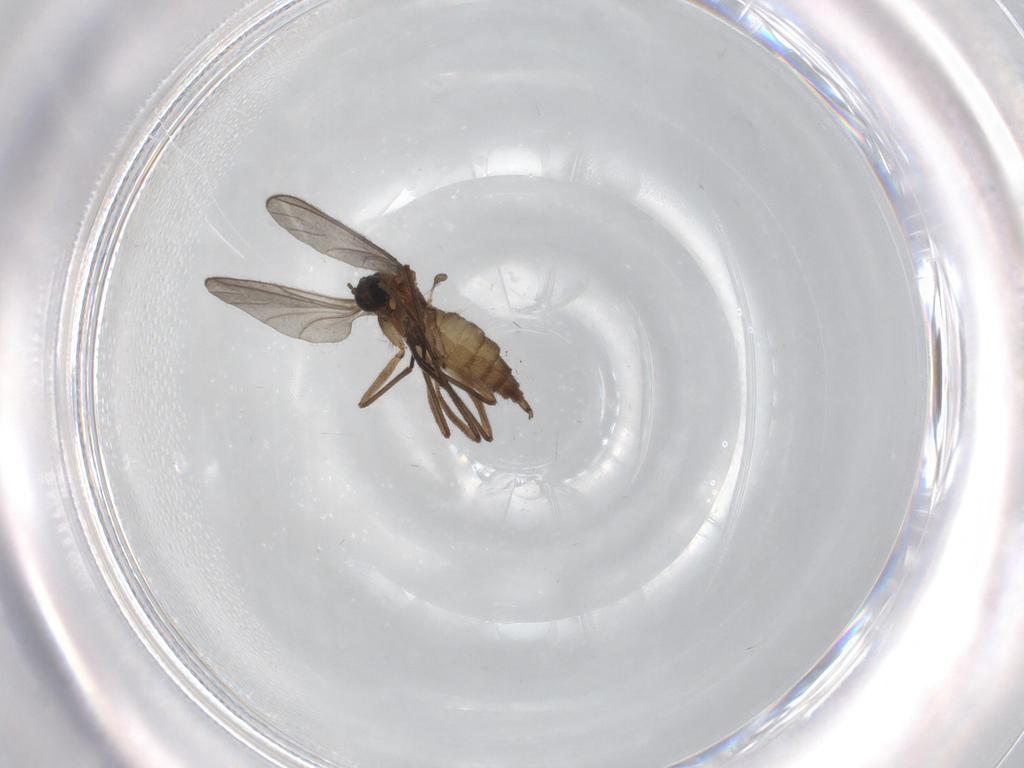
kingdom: Animalia
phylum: Arthropoda
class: Insecta
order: Diptera
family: Sciaridae
